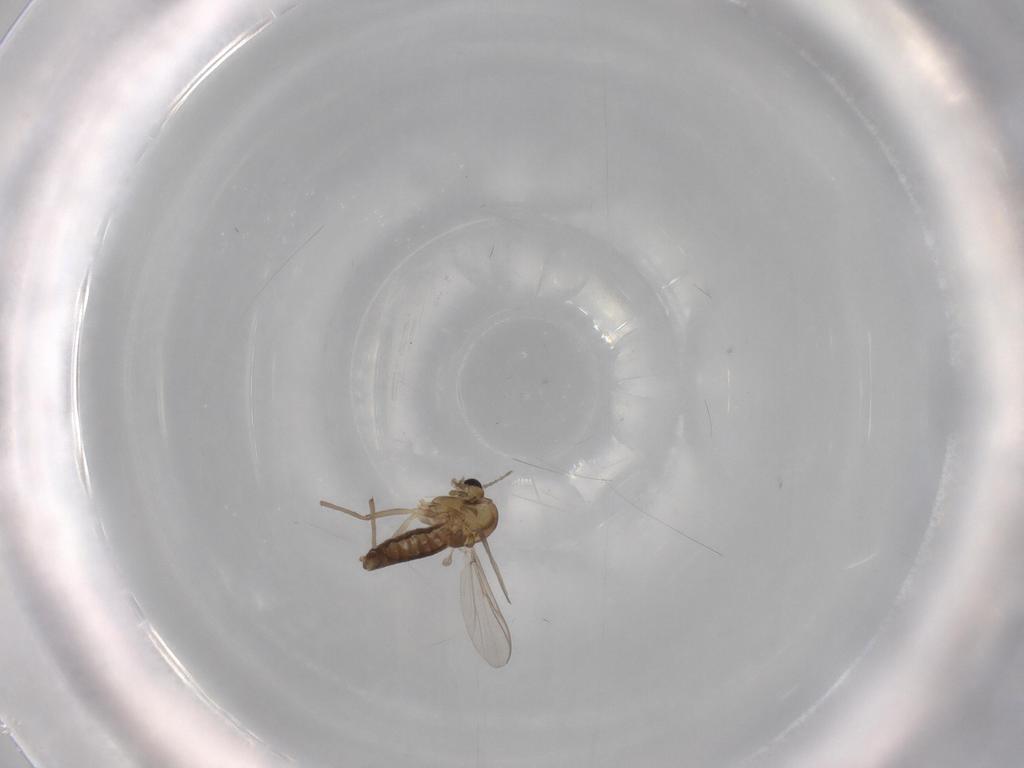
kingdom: Animalia
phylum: Arthropoda
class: Insecta
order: Diptera
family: Chironomidae
